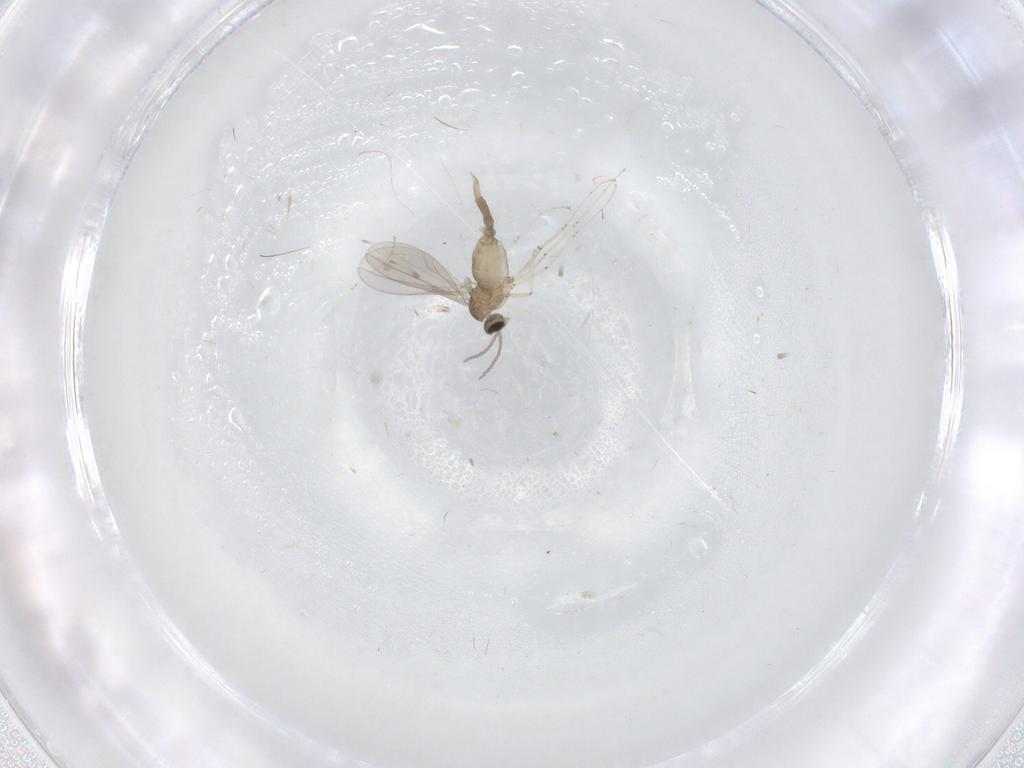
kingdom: Animalia
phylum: Arthropoda
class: Insecta
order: Diptera
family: Cecidomyiidae
